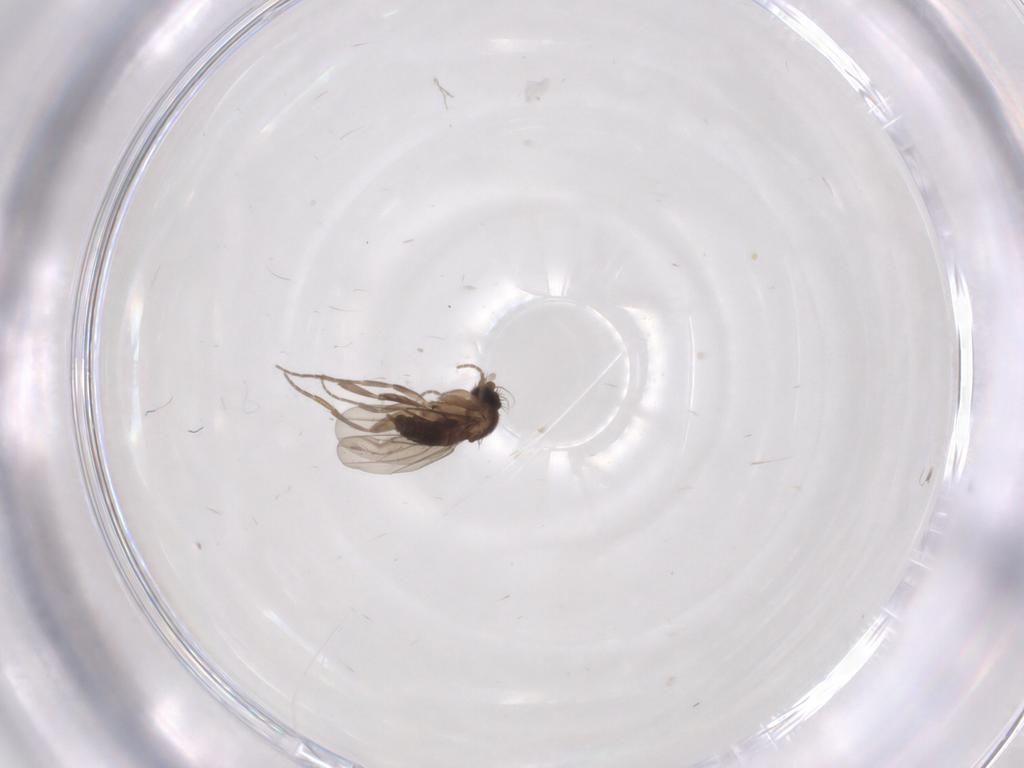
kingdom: Animalia
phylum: Arthropoda
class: Insecta
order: Diptera
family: Phoridae
